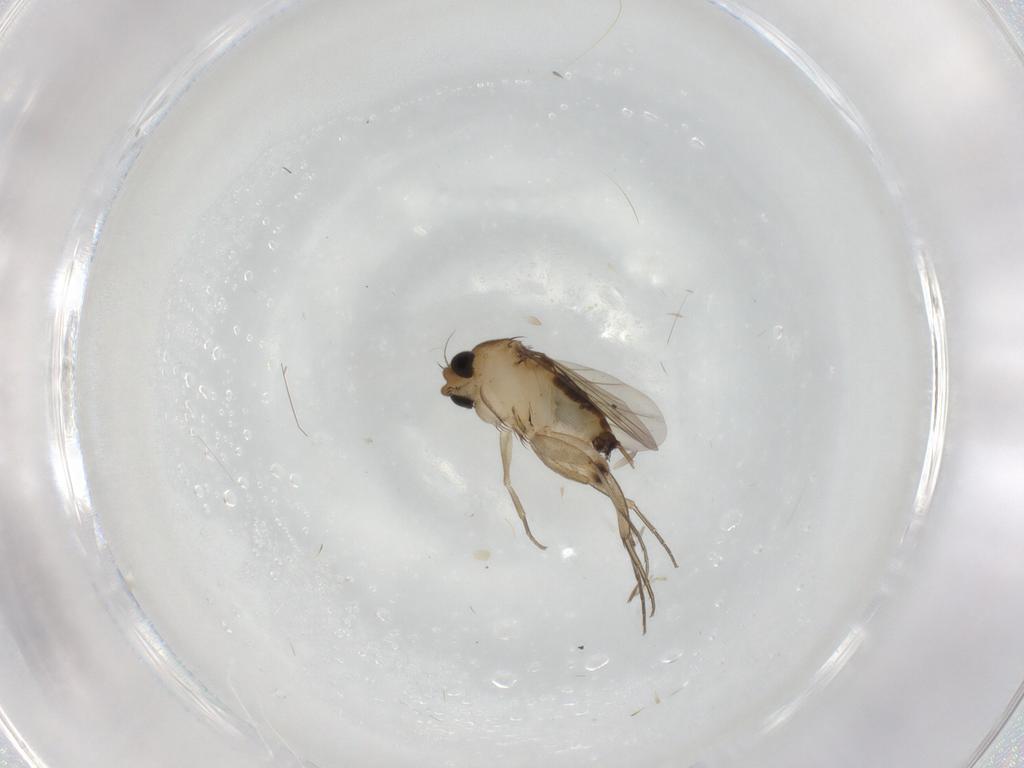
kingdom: Animalia
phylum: Arthropoda
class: Insecta
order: Diptera
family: Phoridae
